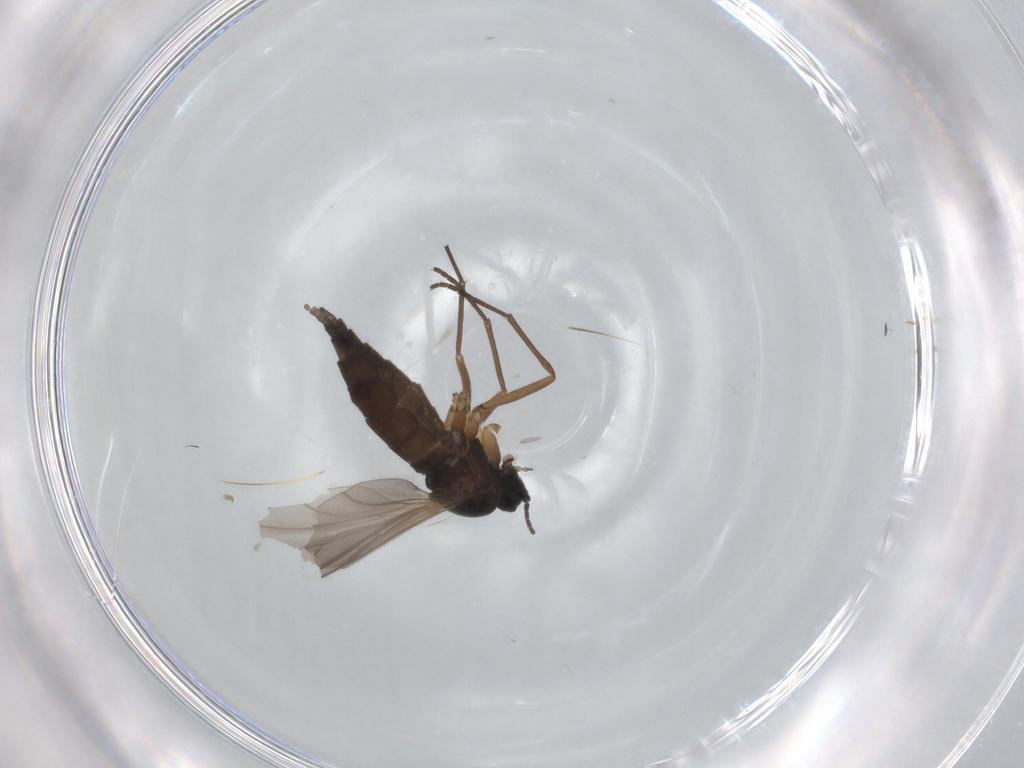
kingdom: Animalia
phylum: Arthropoda
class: Insecta
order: Diptera
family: Sciaridae
